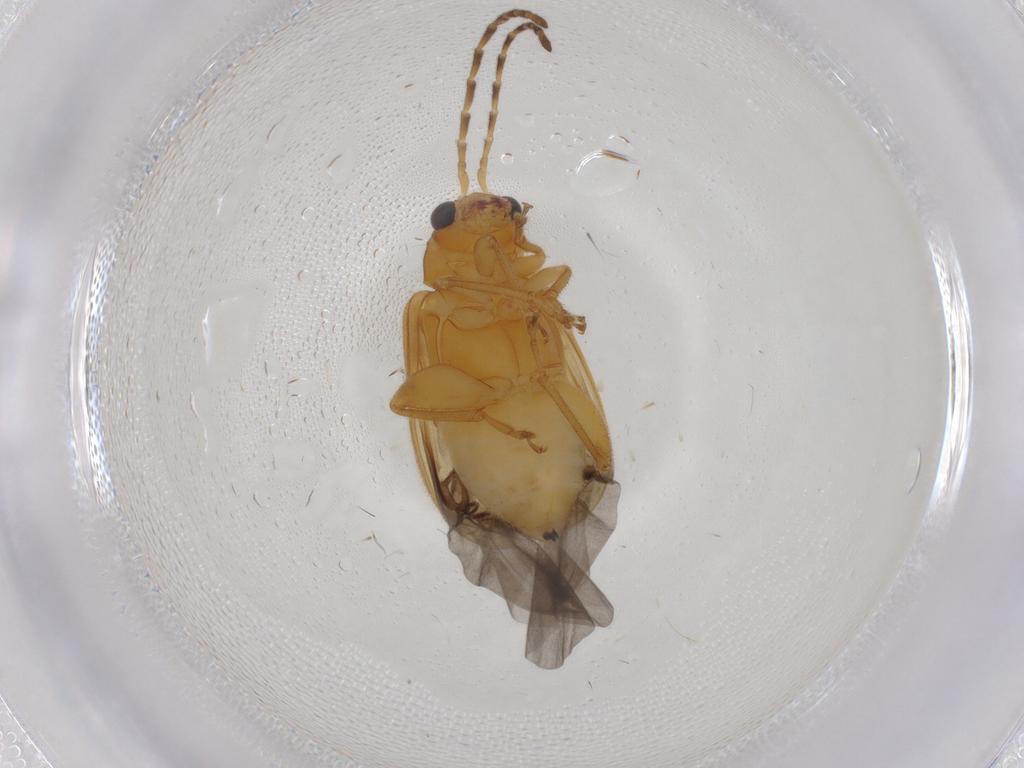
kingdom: Animalia
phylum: Arthropoda
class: Insecta
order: Coleoptera
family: Chrysomelidae
